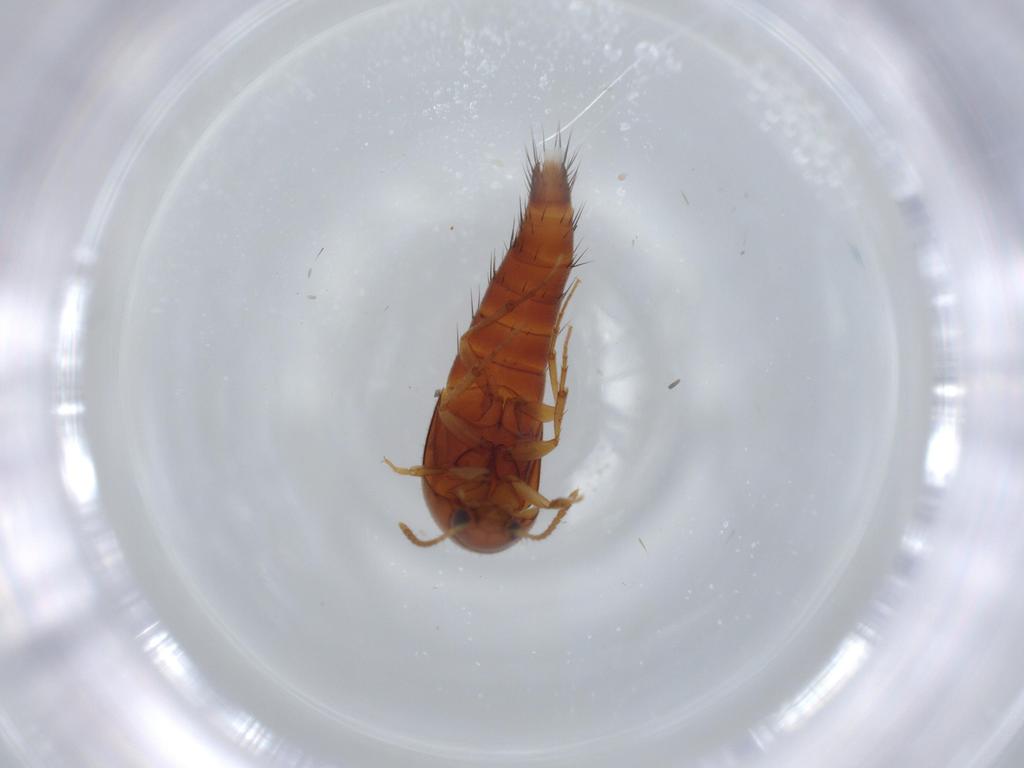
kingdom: Animalia
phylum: Arthropoda
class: Insecta
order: Coleoptera
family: Staphylinidae
